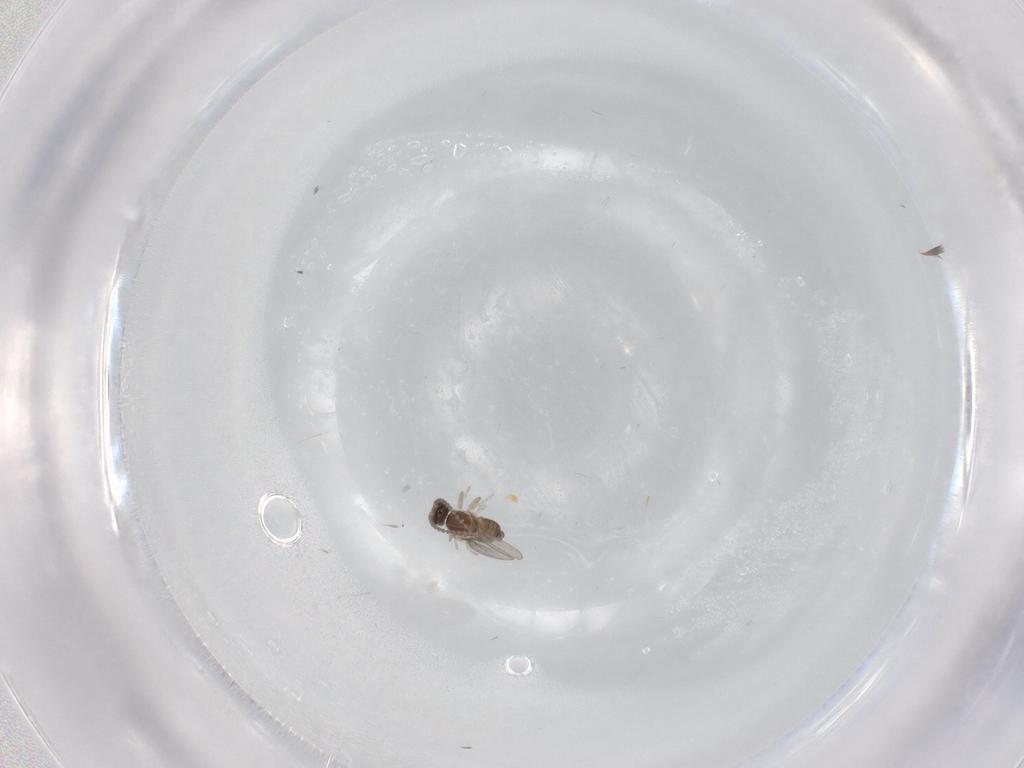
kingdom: Animalia
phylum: Arthropoda
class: Insecta
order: Diptera
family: Cecidomyiidae
